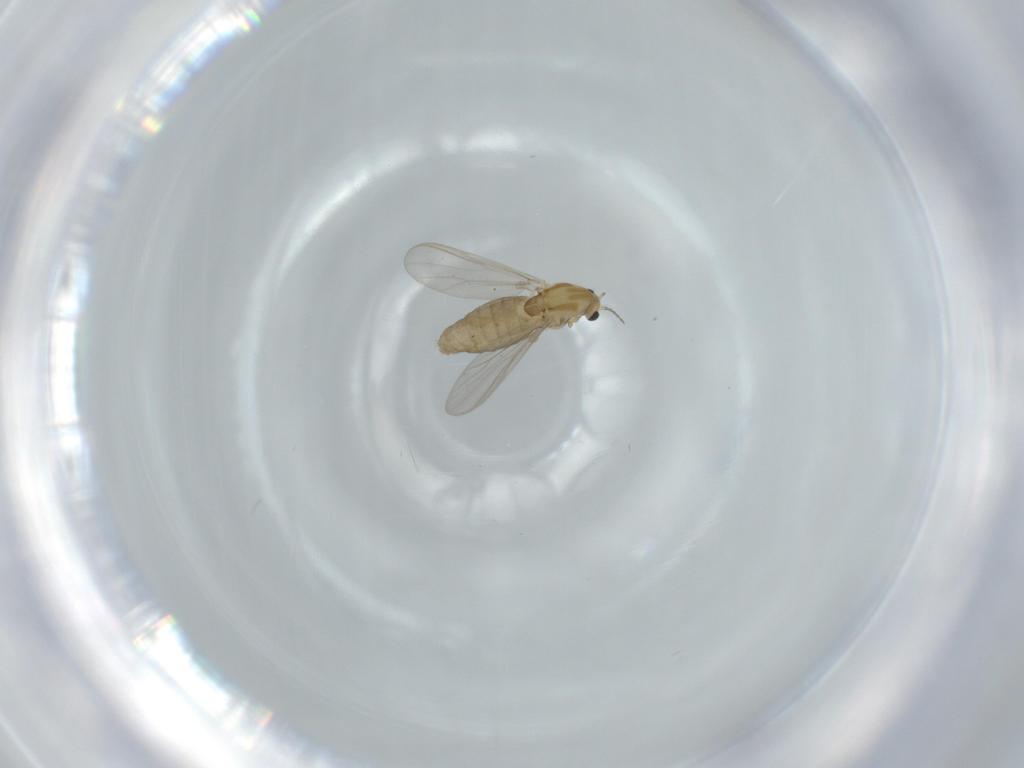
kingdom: Animalia
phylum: Arthropoda
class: Insecta
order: Diptera
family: Chironomidae
